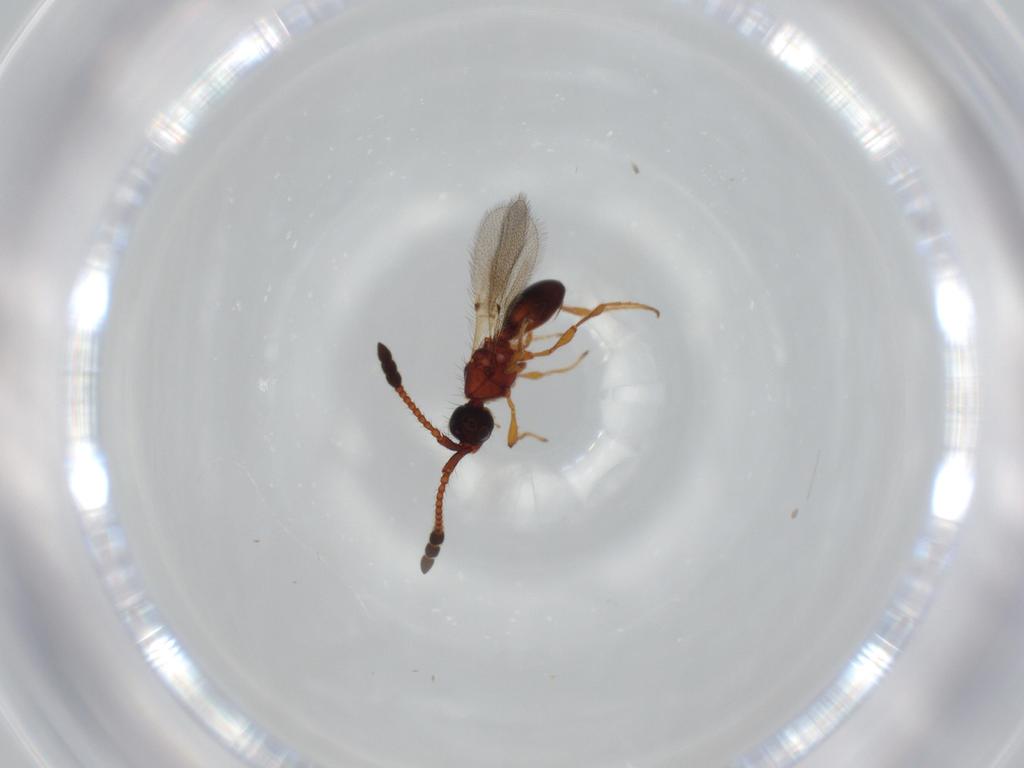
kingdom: Animalia
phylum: Arthropoda
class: Insecta
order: Hymenoptera
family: Diapriidae
